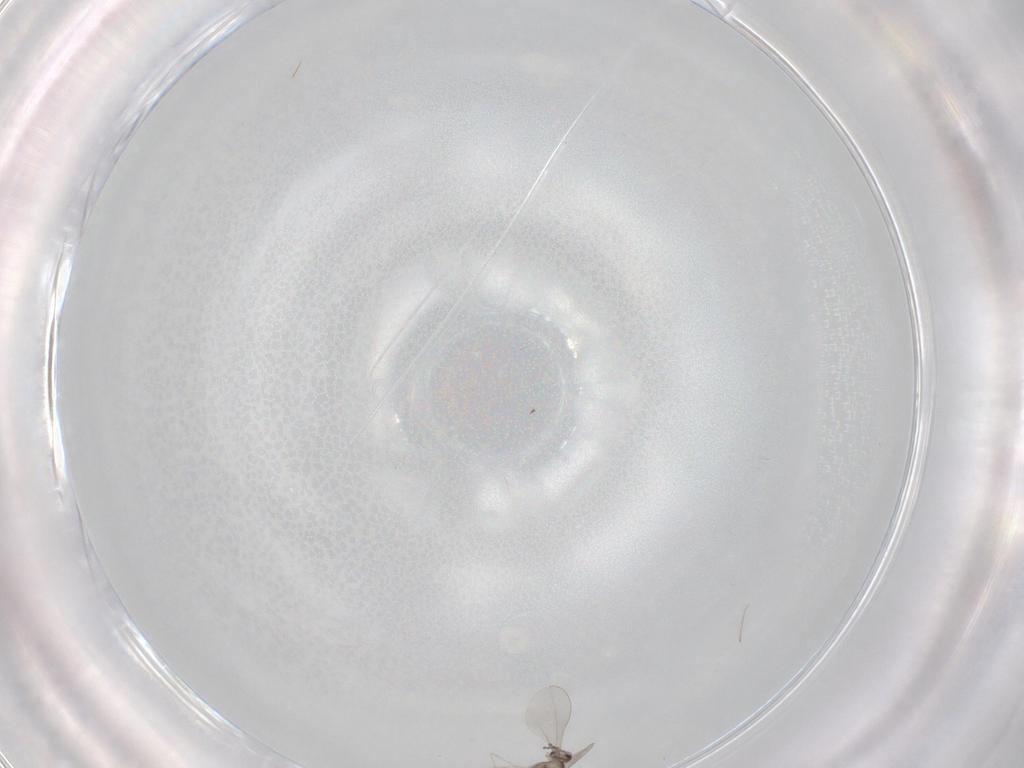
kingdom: Animalia
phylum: Arthropoda
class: Insecta
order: Diptera
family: Cecidomyiidae
